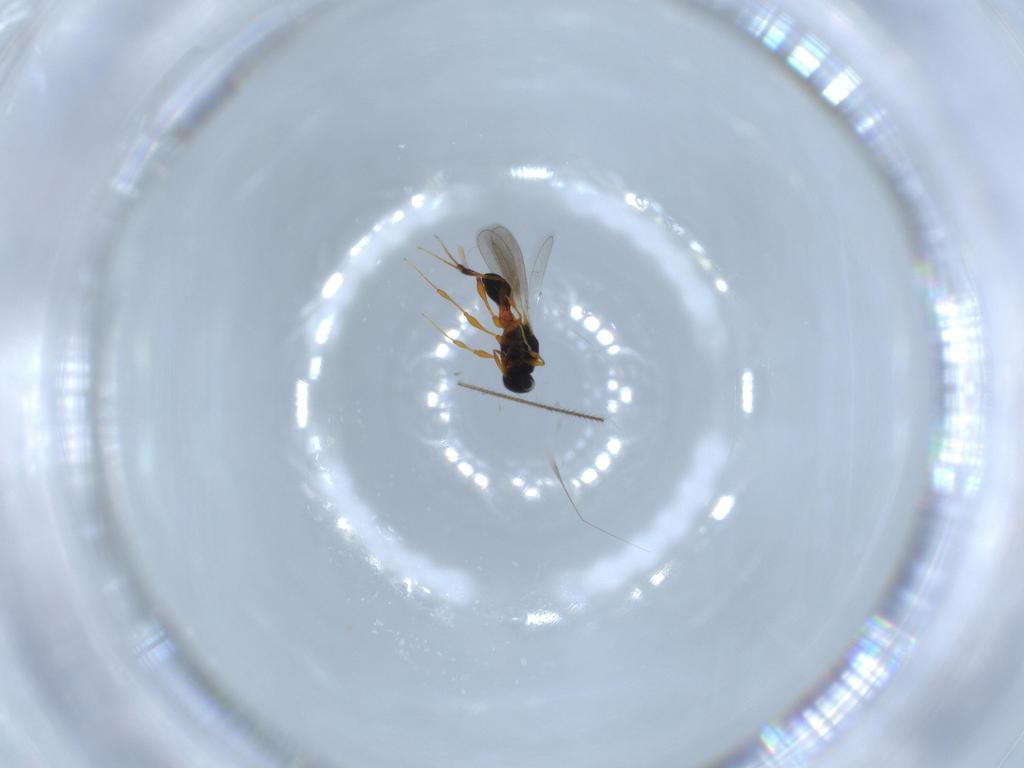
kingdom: Animalia
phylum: Arthropoda
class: Insecta
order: Hymenoptera
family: Platygastridae
